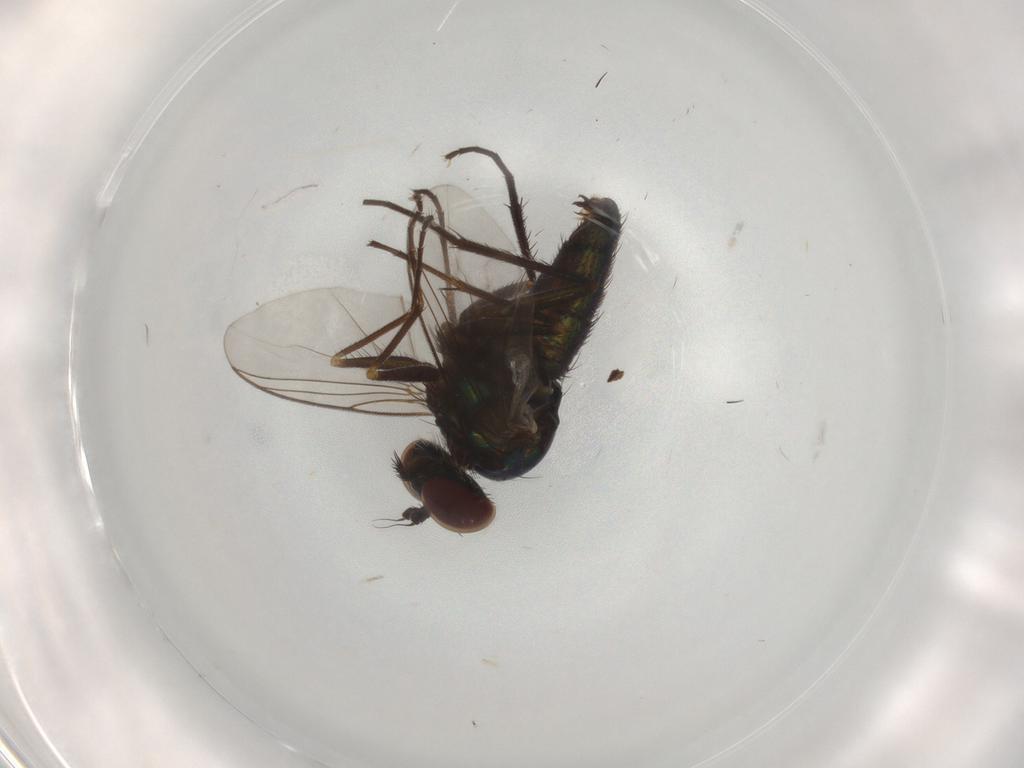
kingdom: Animalia
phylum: Arthropoda
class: Insecta
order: Diptera
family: Dolichopodidae
